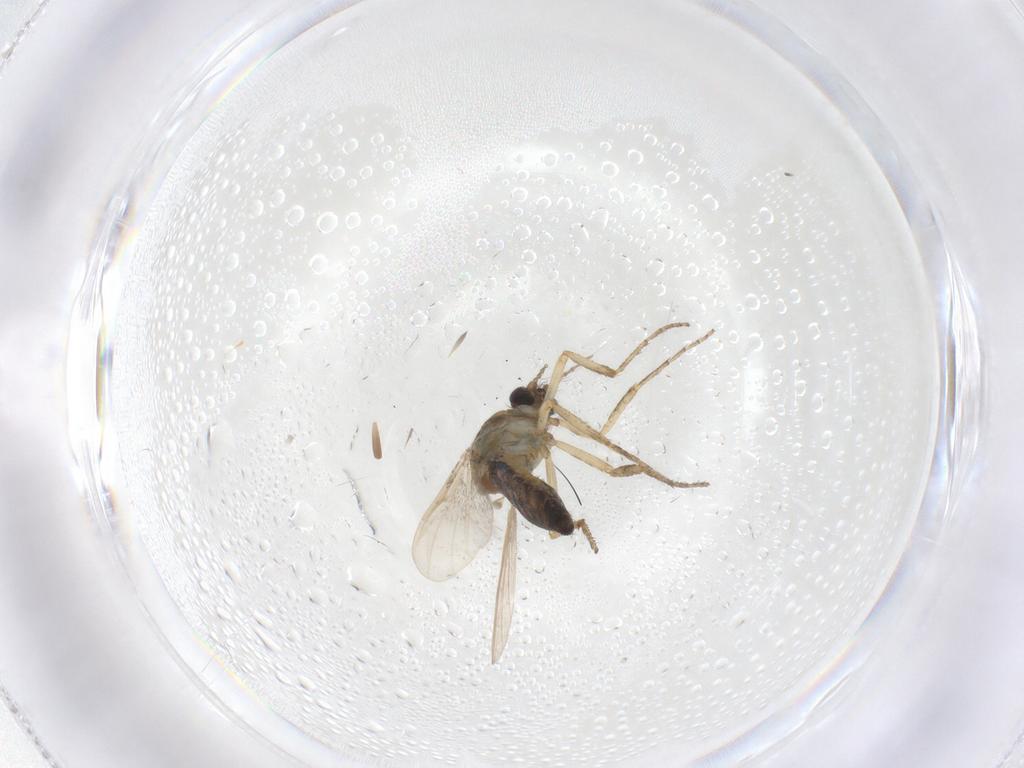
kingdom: Animalia
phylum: Arthropoda
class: Insecta
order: Diptera
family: Ceratopogonidae
